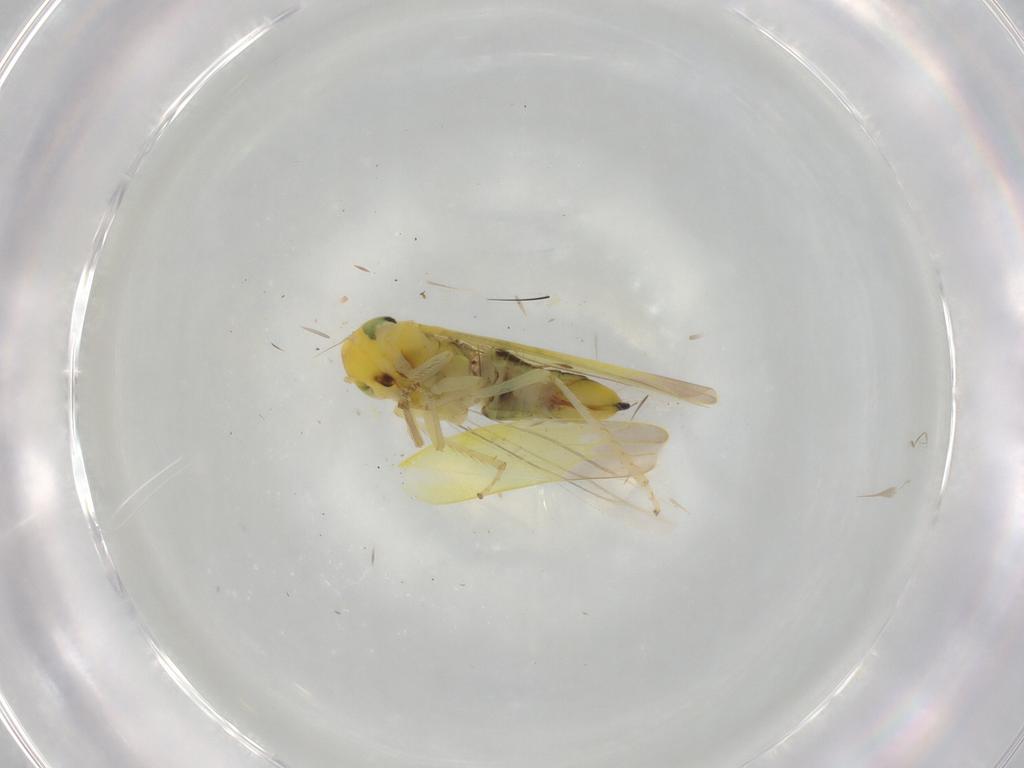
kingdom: Animalia
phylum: Arthropoda
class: Insecta
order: Hemiptera
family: Cicadellidae
